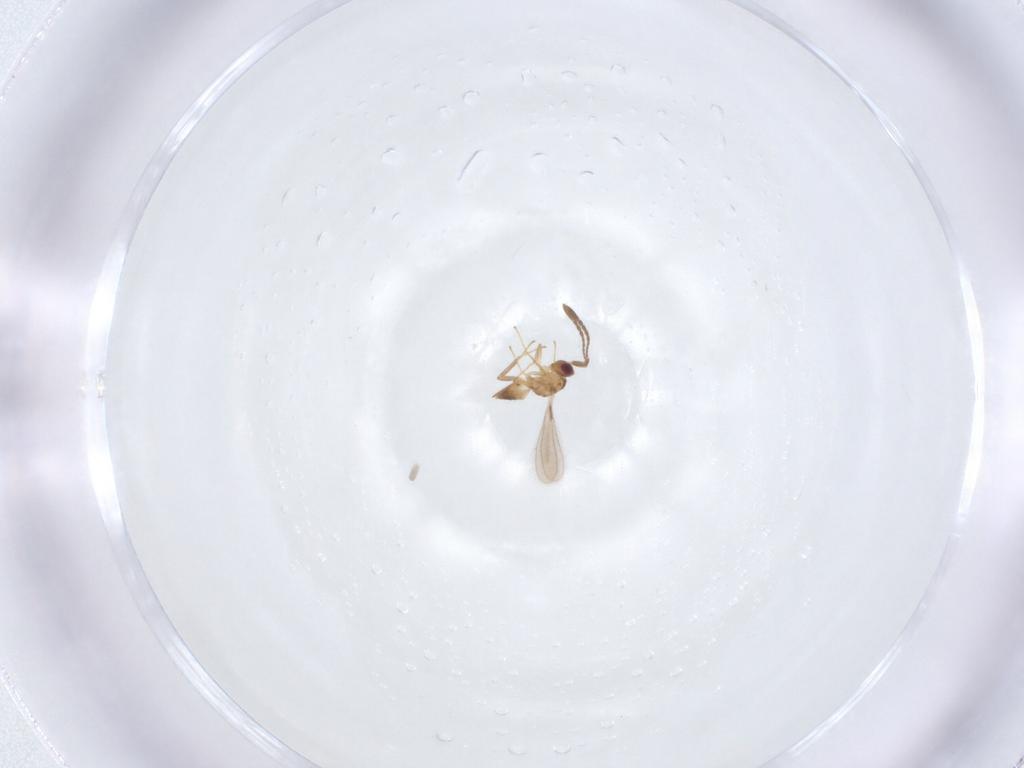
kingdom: Animalia
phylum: Arthropoda
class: Insecta
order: Hymenoptera
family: Mymaridae
